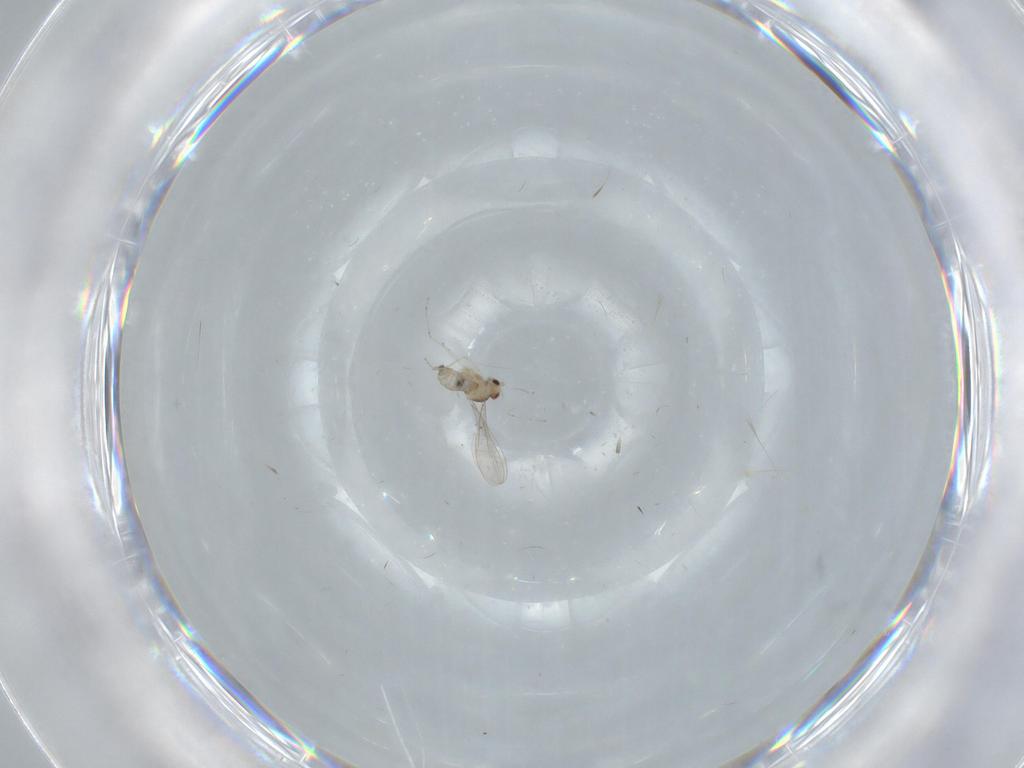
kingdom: Animalia
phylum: Arthropoda
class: Insecta
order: Diptera
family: Cecidomyiidae
